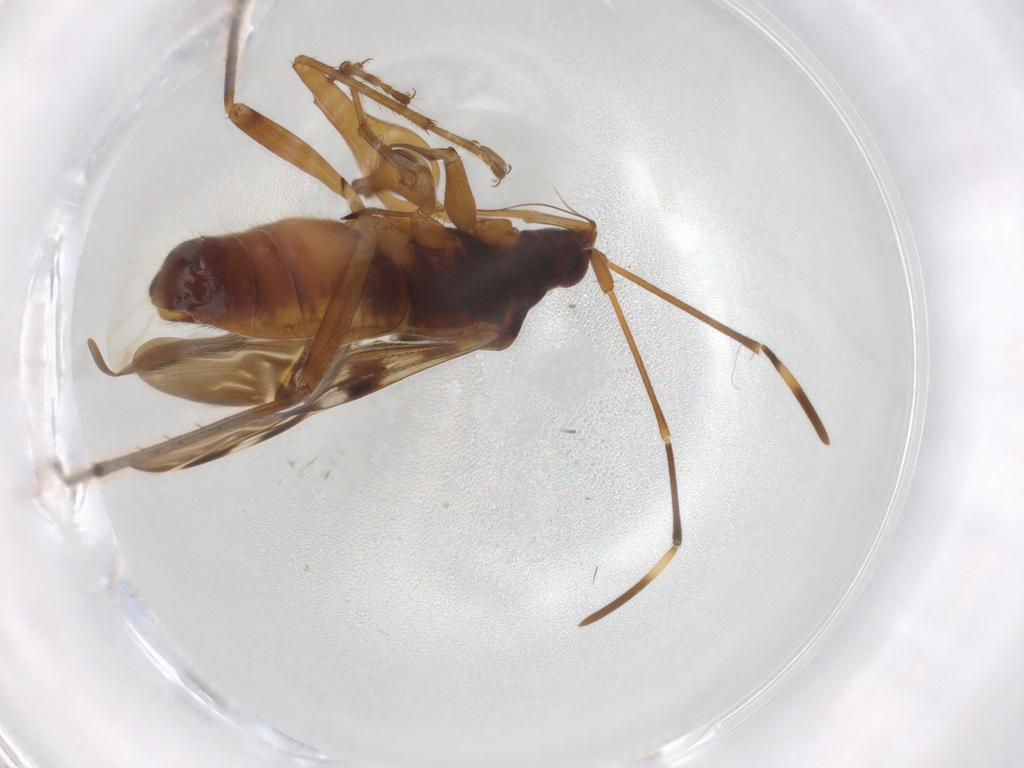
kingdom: Animalia
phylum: Arthropoda
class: Insecta
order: Hemiptera
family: Rhyparochromidae
